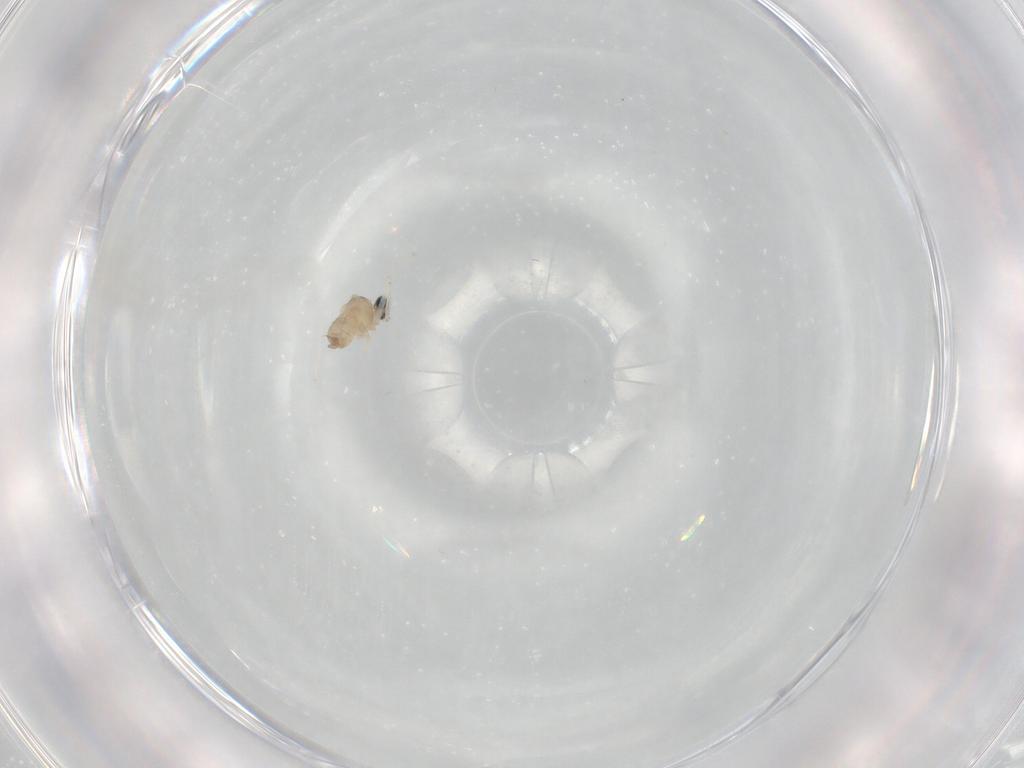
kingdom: Animalia
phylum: Arthropoda
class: Insecta
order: Diptera
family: Cecidomyiidae
